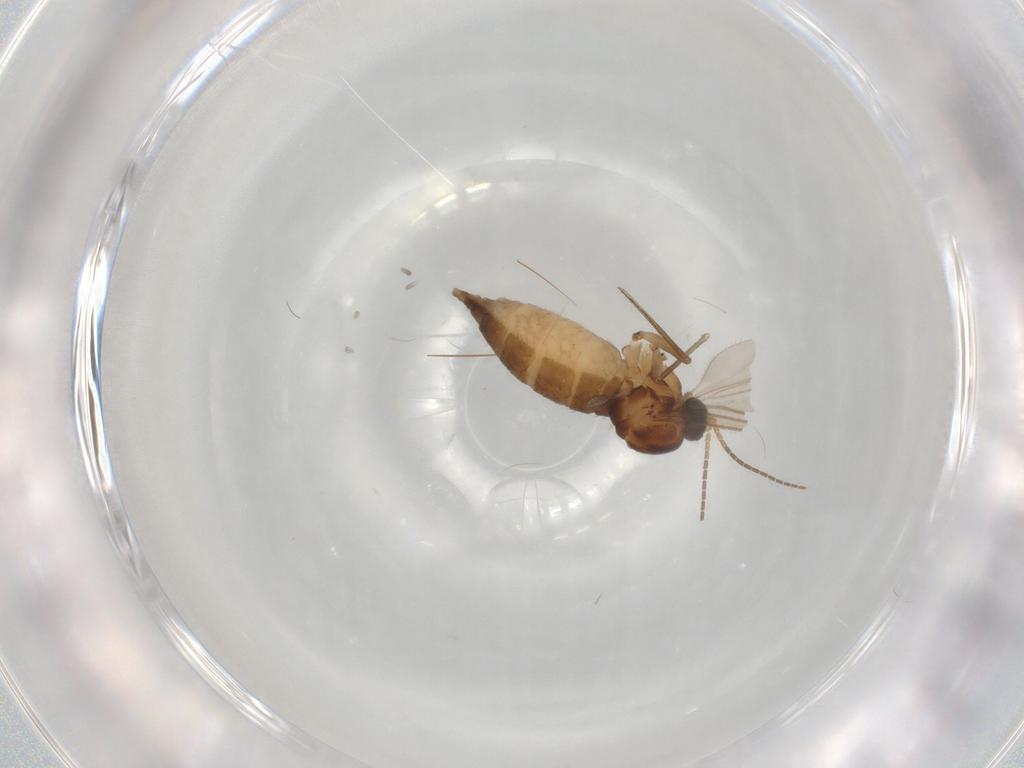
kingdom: Animalia
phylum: Arthropoda
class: Insecta
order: Diptera
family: Sciaridae
